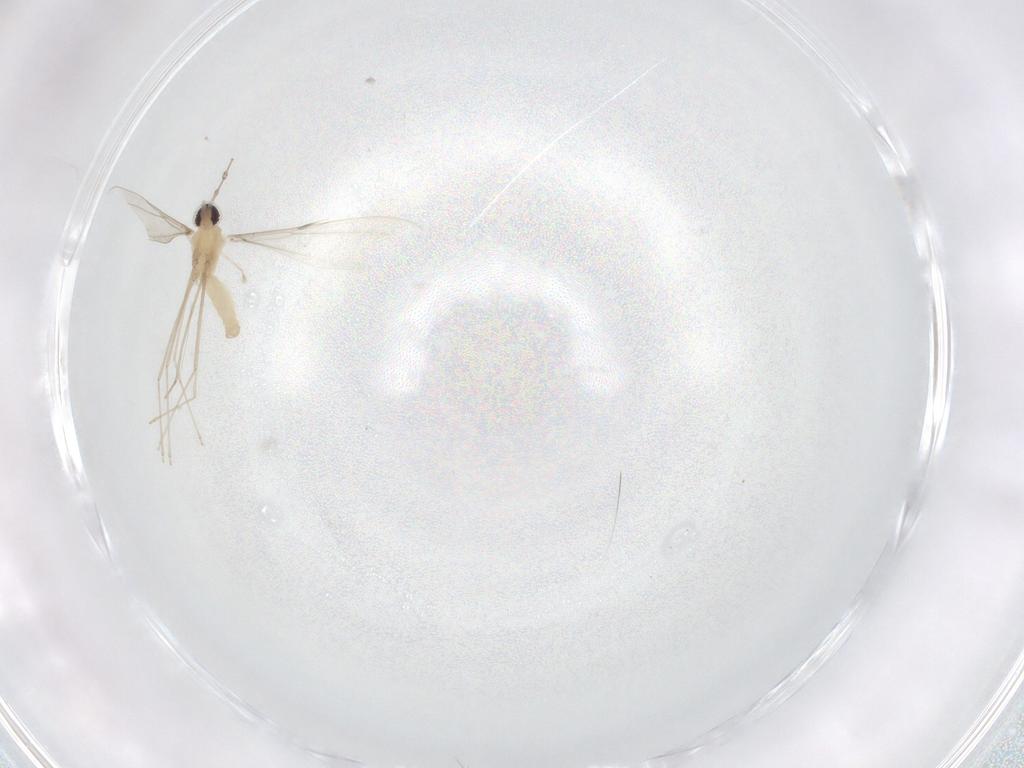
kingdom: Animalia
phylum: Arthropoda
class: Insecta
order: Diptera
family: Cecidomyiidae
